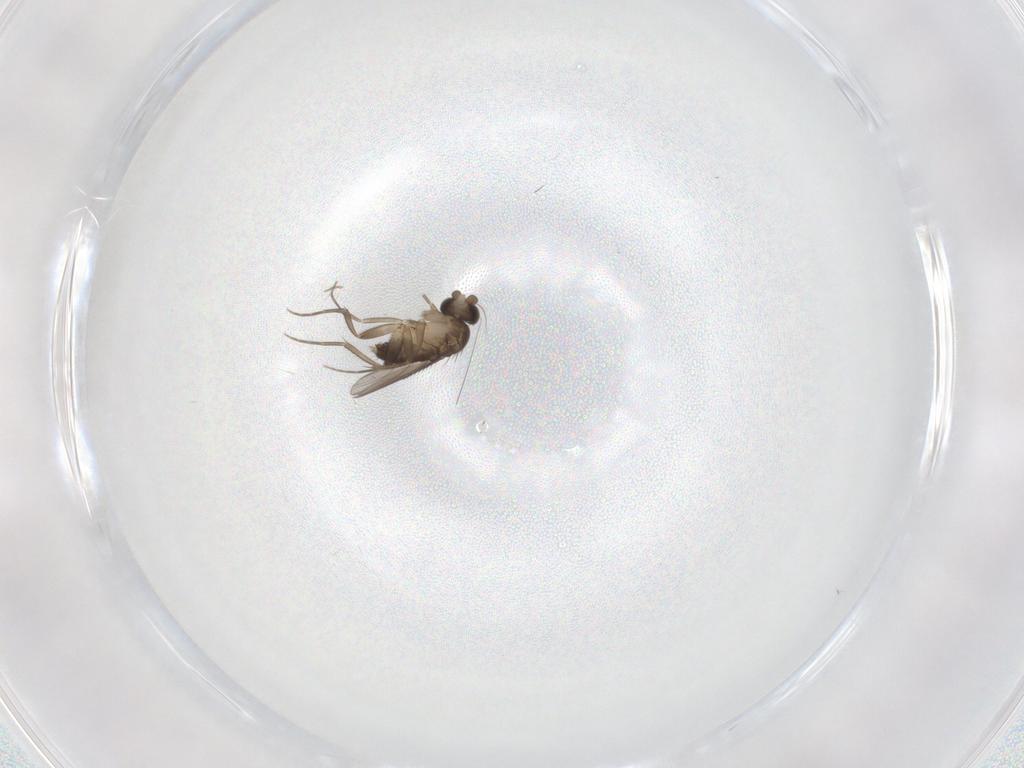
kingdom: Animalia
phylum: Arthropoda
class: Insecta
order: Diptera
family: Phoridae
